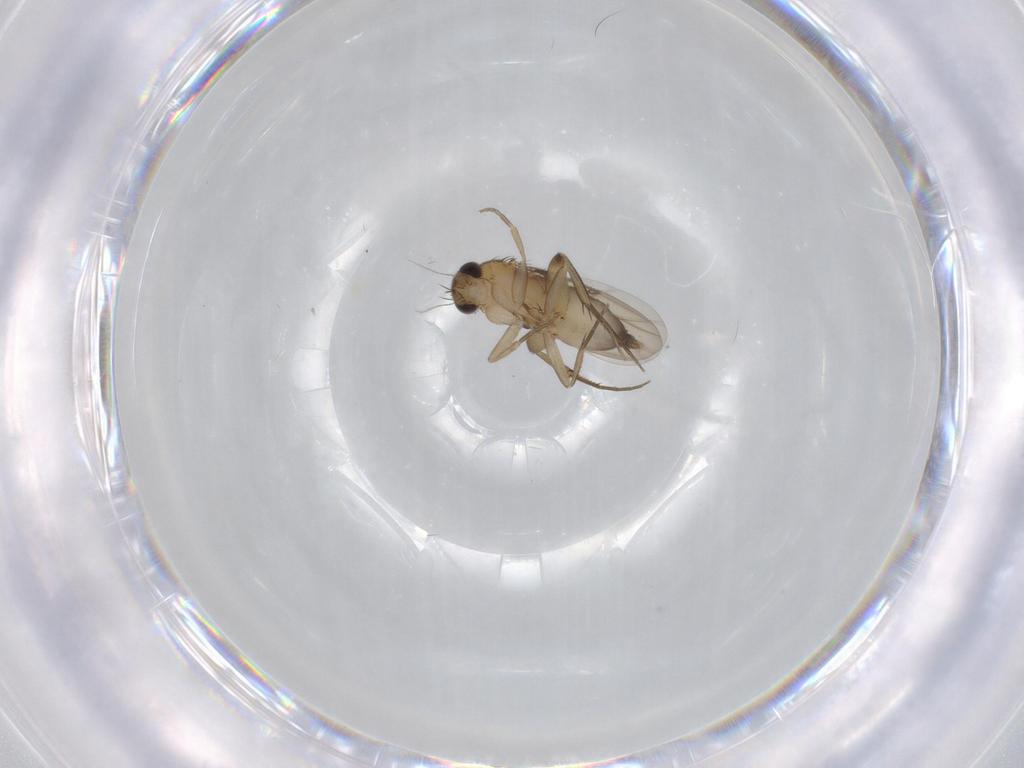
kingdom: Animalia
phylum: Arthropoda
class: Insecta
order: Diptera
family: Phoridae
